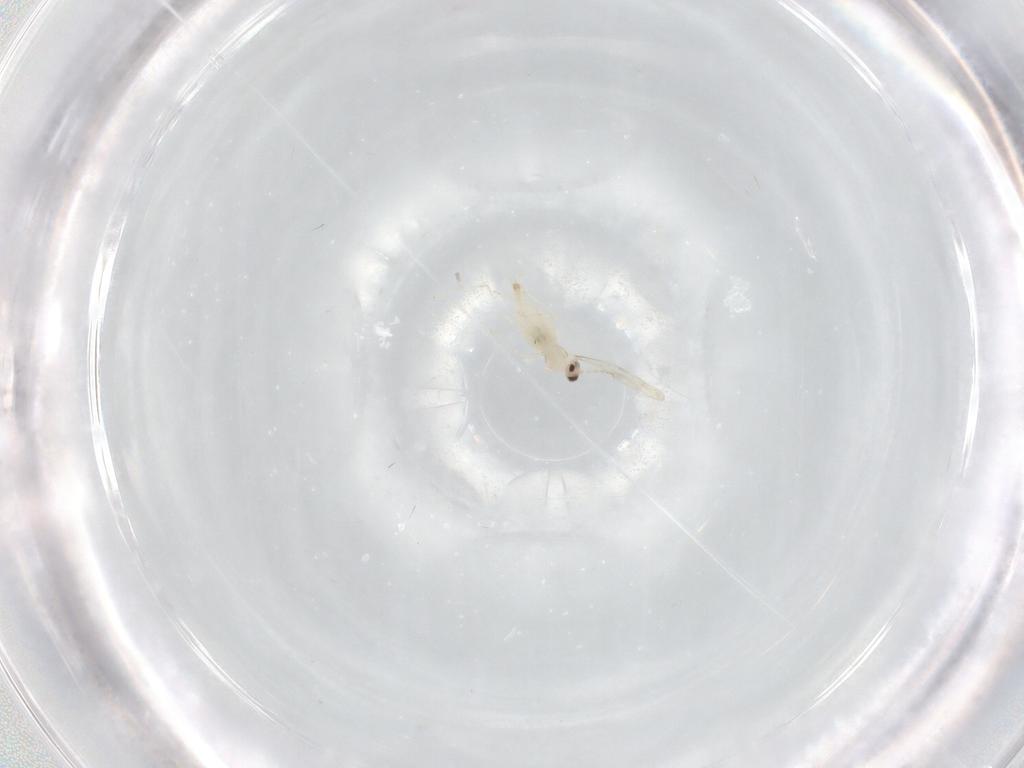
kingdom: Animalia
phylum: Arthropoda
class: Insecta
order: Diptera
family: Cecidomyiidae
